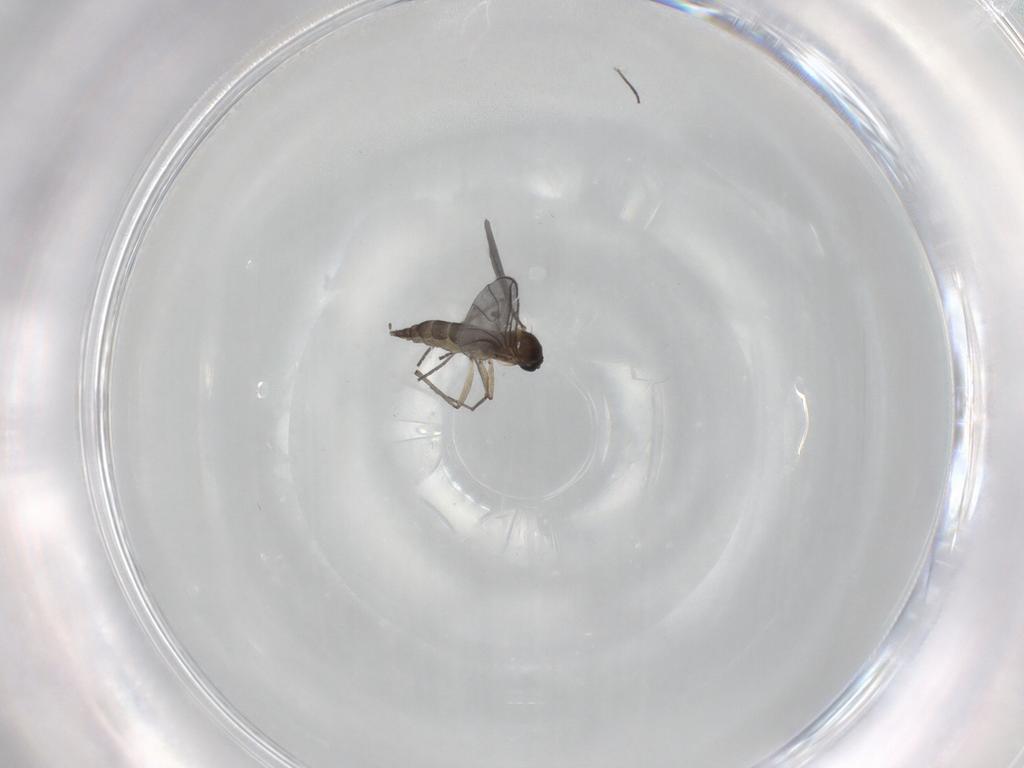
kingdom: Animalia
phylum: Arthropoda
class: Insecta
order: Diptera
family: Sciaridae
